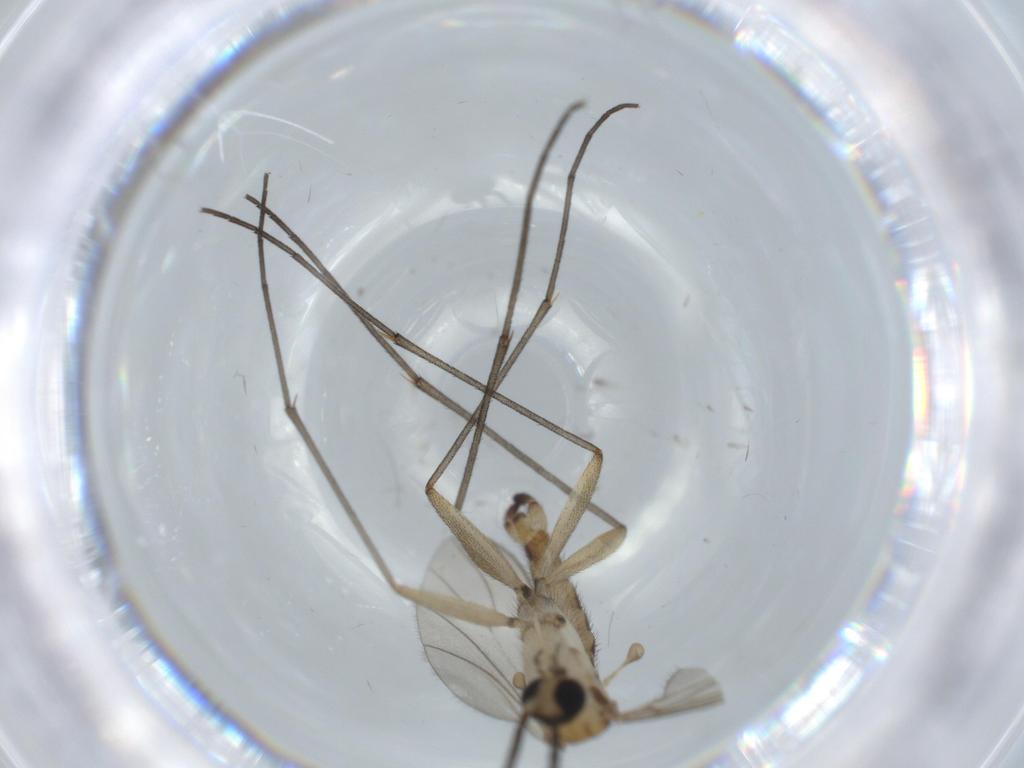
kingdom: Animalia
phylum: Arthropoda
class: Insecta
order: Diptera
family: Sciaridae
